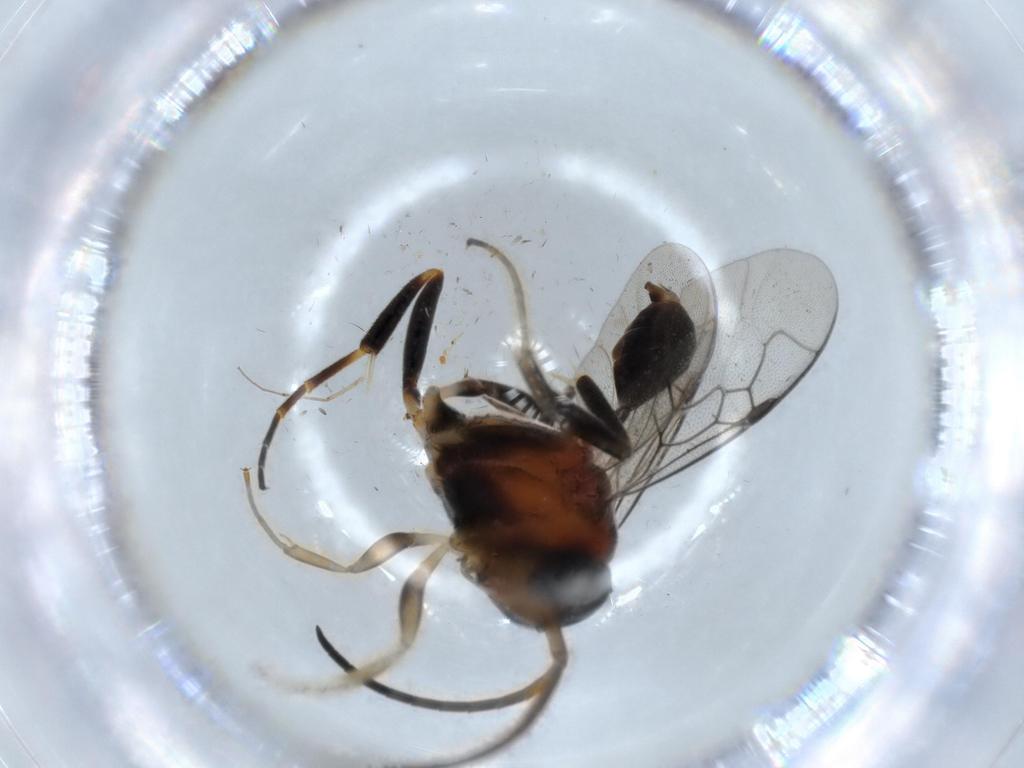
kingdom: Animalia
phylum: Arthropoda
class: Insecta
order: Hymenoptera
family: Evaniidae
